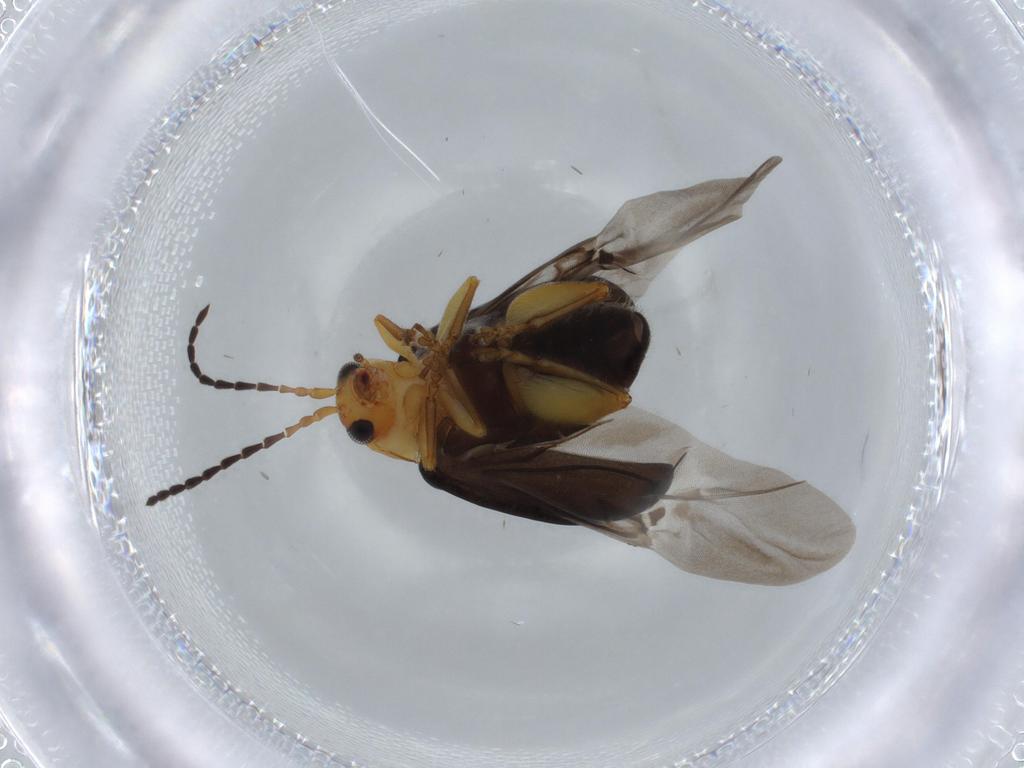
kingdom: Animalia
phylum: Arthropoda
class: Insecta
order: Coleoptera
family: Chrysomelidae
